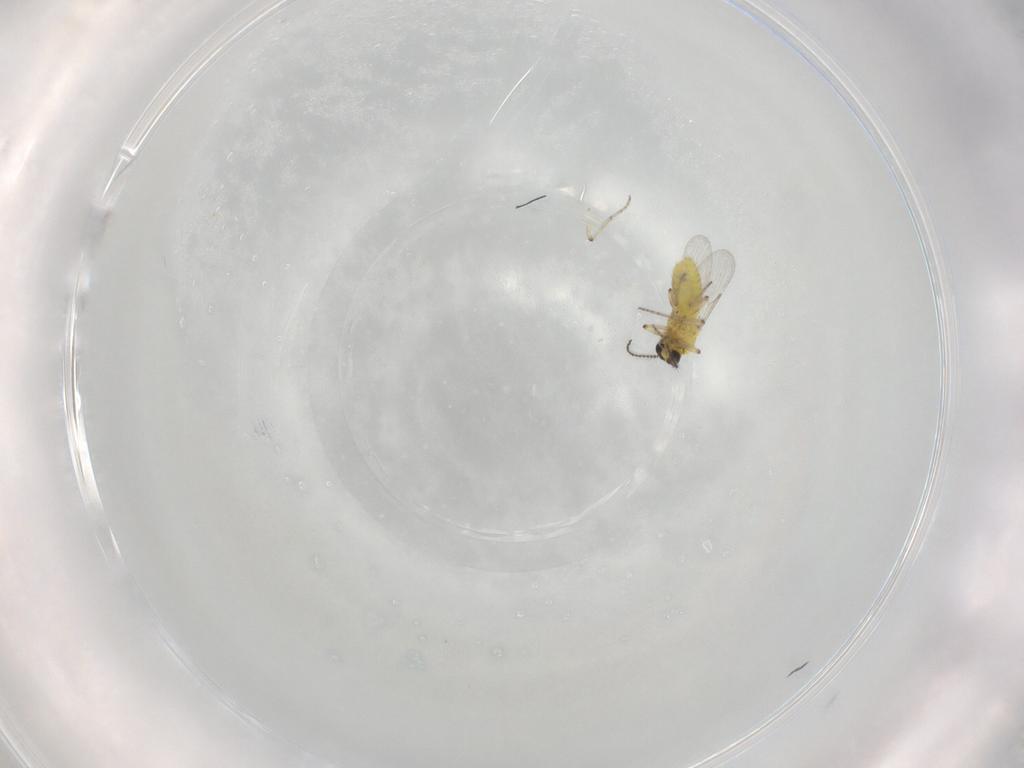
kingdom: Animalia
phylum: Arthropoda
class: Insecta
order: Diptera
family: Ceratopogonidae
